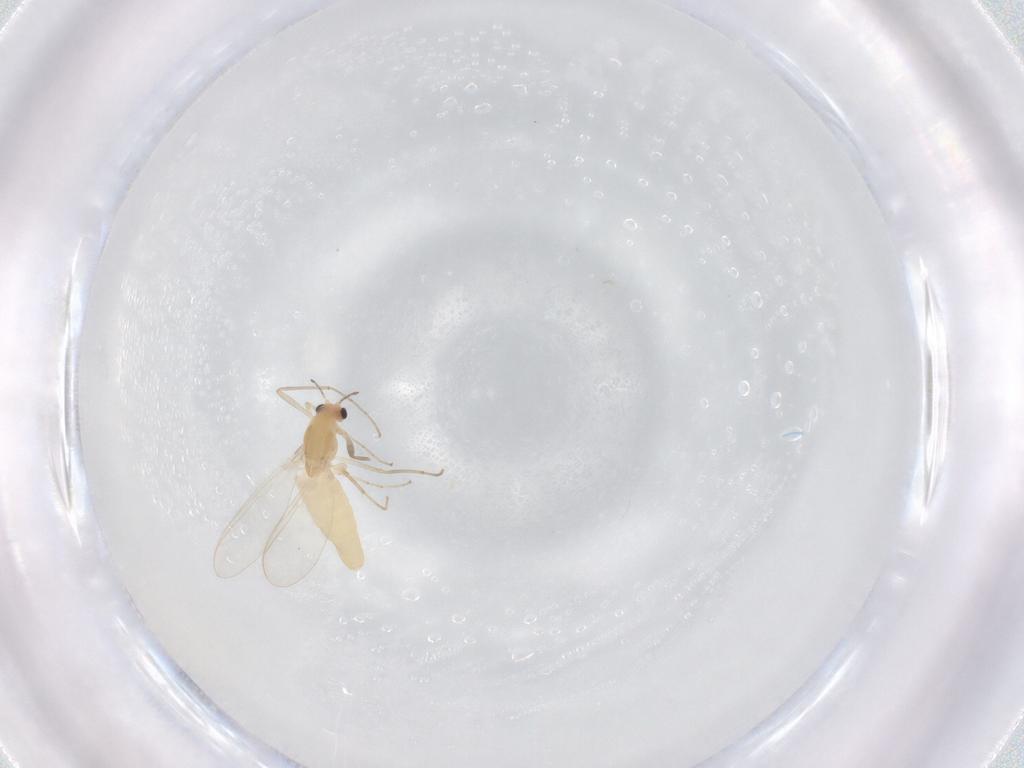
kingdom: Animalia
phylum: Arthropoda
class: Insecta
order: Diptera
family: Chironomidae
